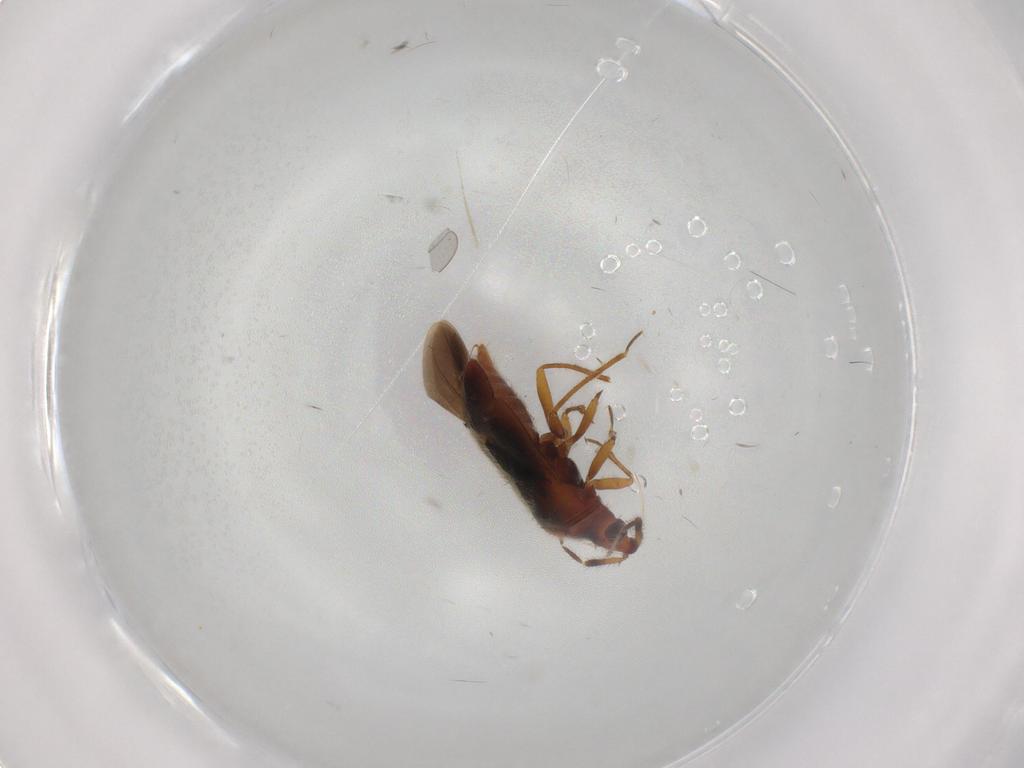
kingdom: Animalia
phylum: Arthropoda
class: Insecta
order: Hemiptera
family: Anthocoridae
